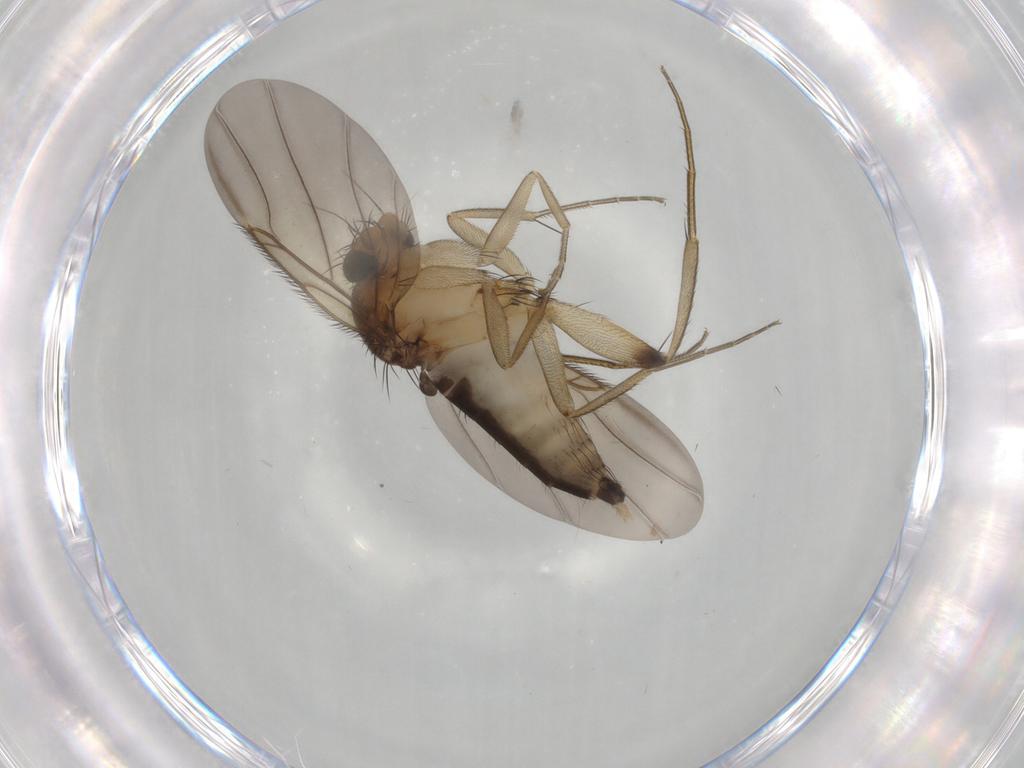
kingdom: Animalia
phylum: Arthropoda
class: Insecta
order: Diptera
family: Phoridae
